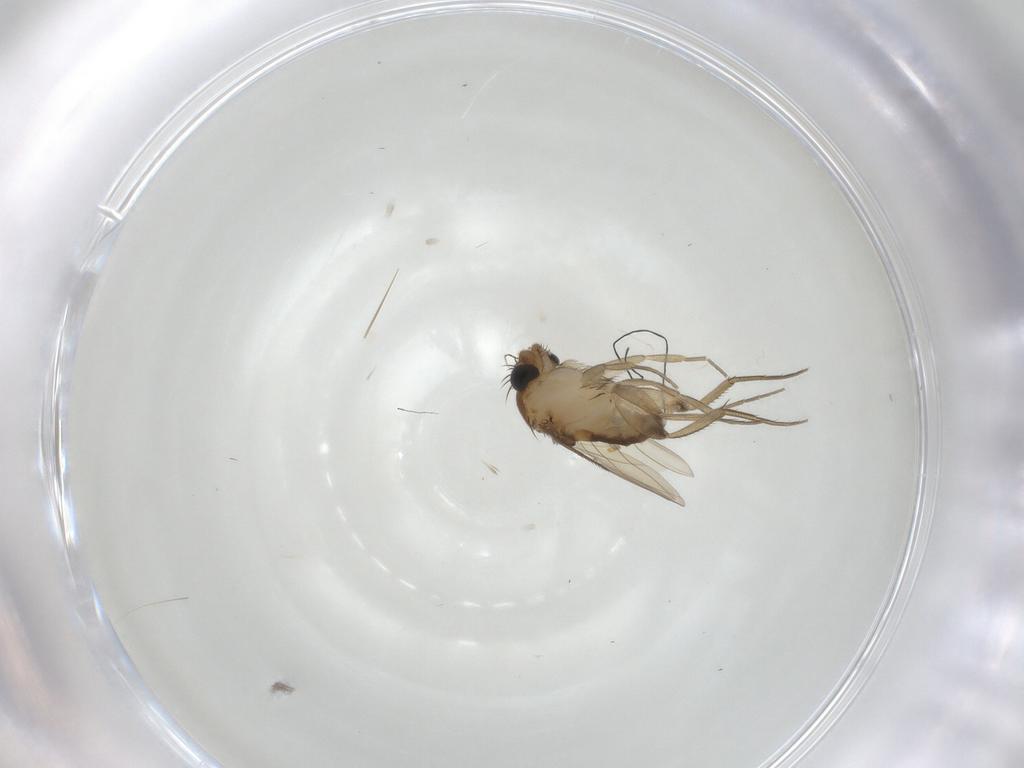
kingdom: Animalia
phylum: Arthropoda
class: Insecta
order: Diptera
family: Phoridae
